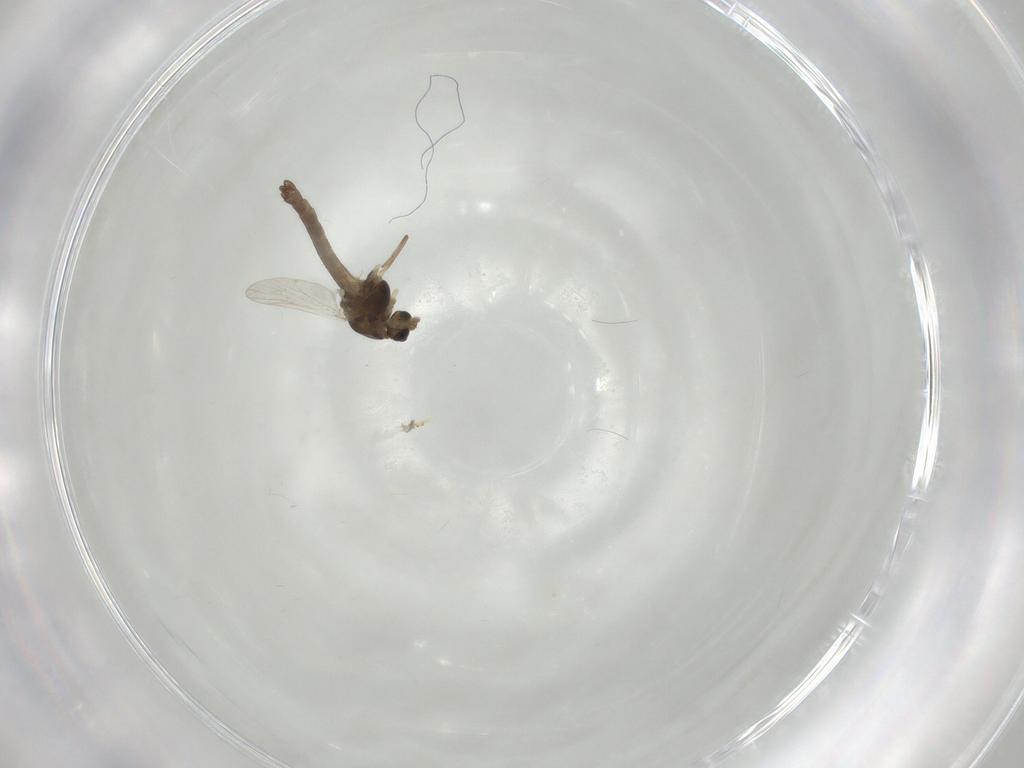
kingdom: Animalia
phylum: Arthropoda
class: Insecta
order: Diptera
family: Chironomidae
